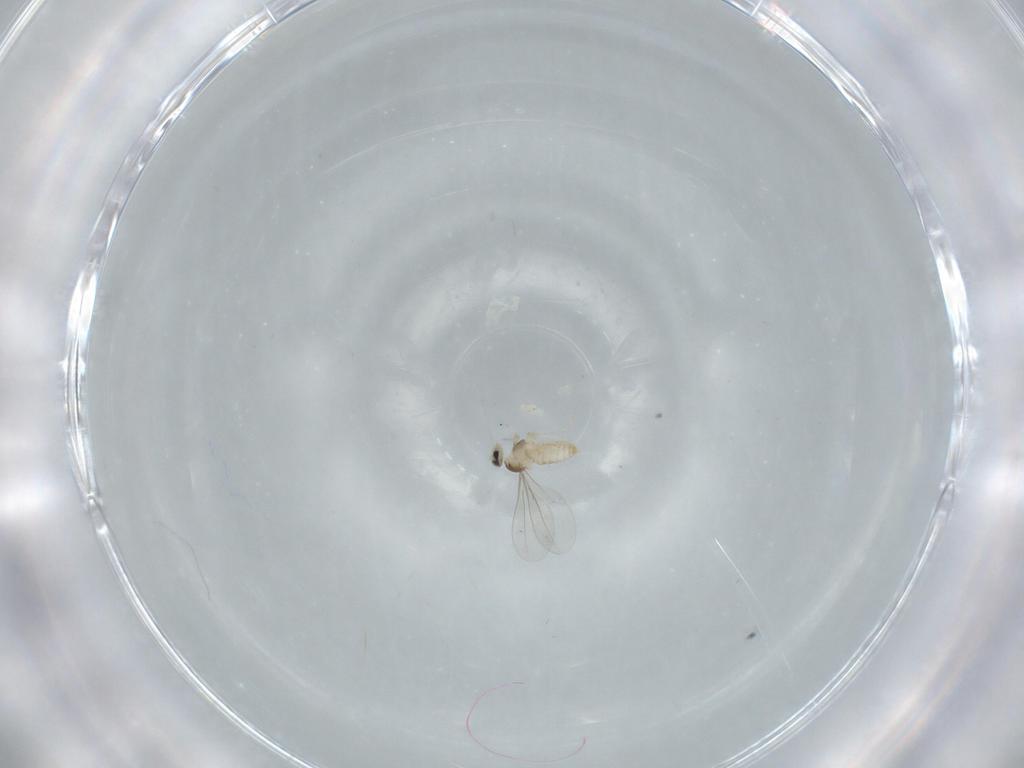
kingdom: Animalia
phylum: Arthropoda
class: Insecta
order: Diptera
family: Cecidomyiidae
